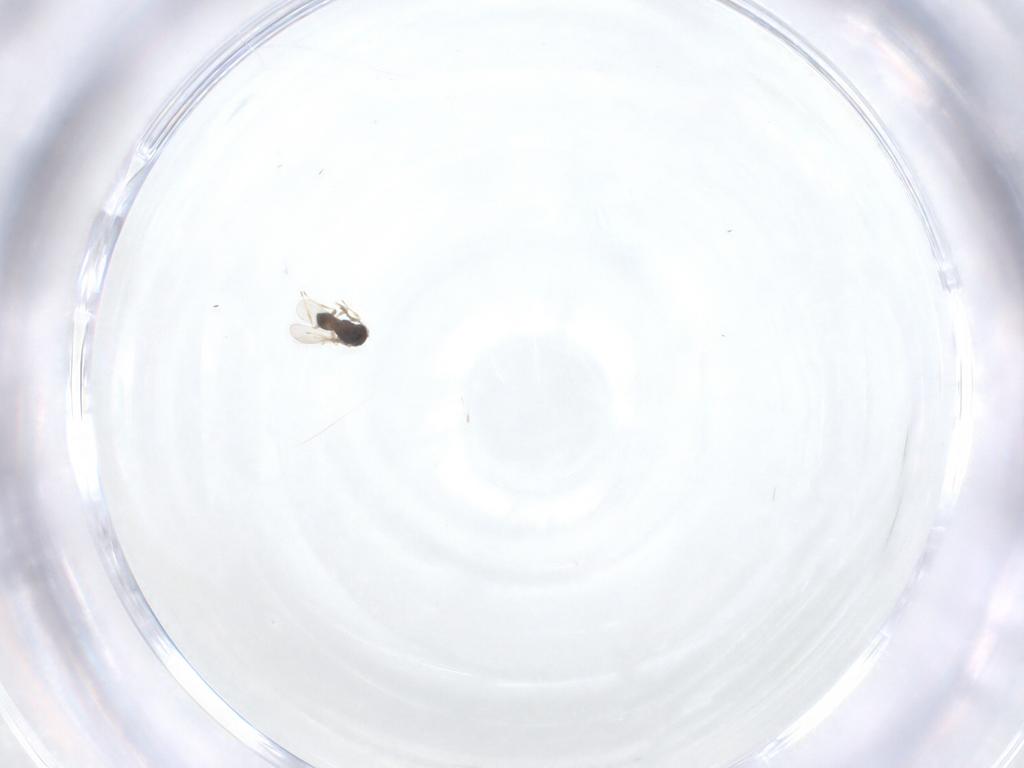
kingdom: Animalia
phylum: Arthropoda
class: Insecta
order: Hymenoptera
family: Scelionidae
